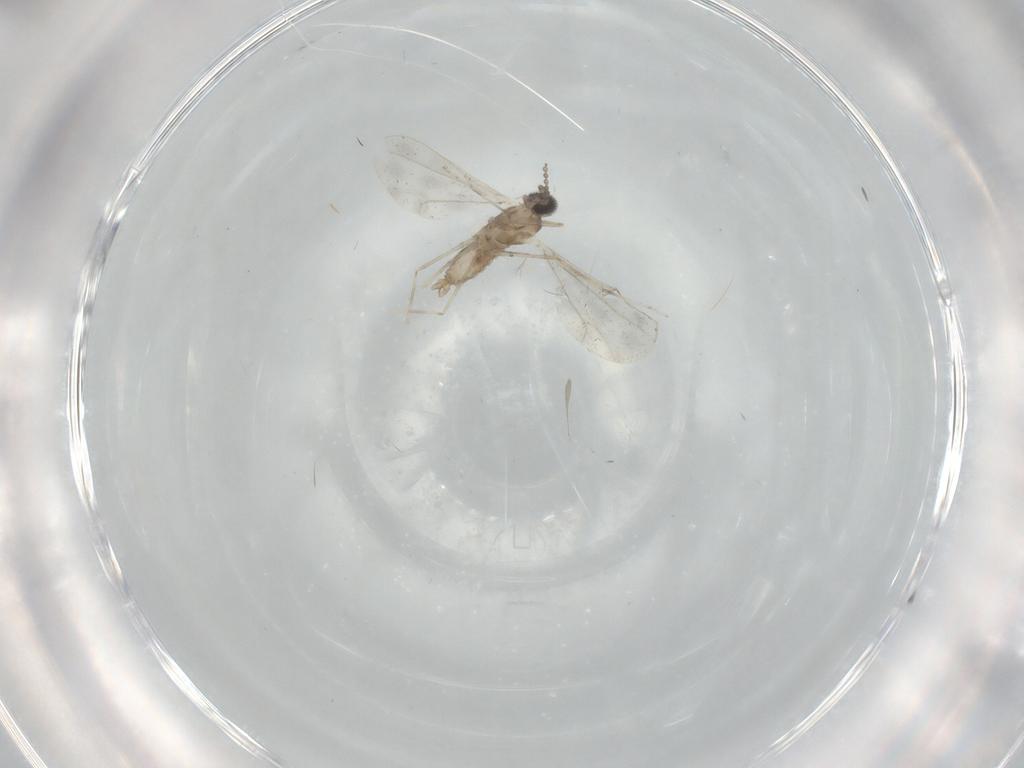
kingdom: Animalia
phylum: Arthropoda
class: Insecta
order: Diptera
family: Cecidomyiidae
